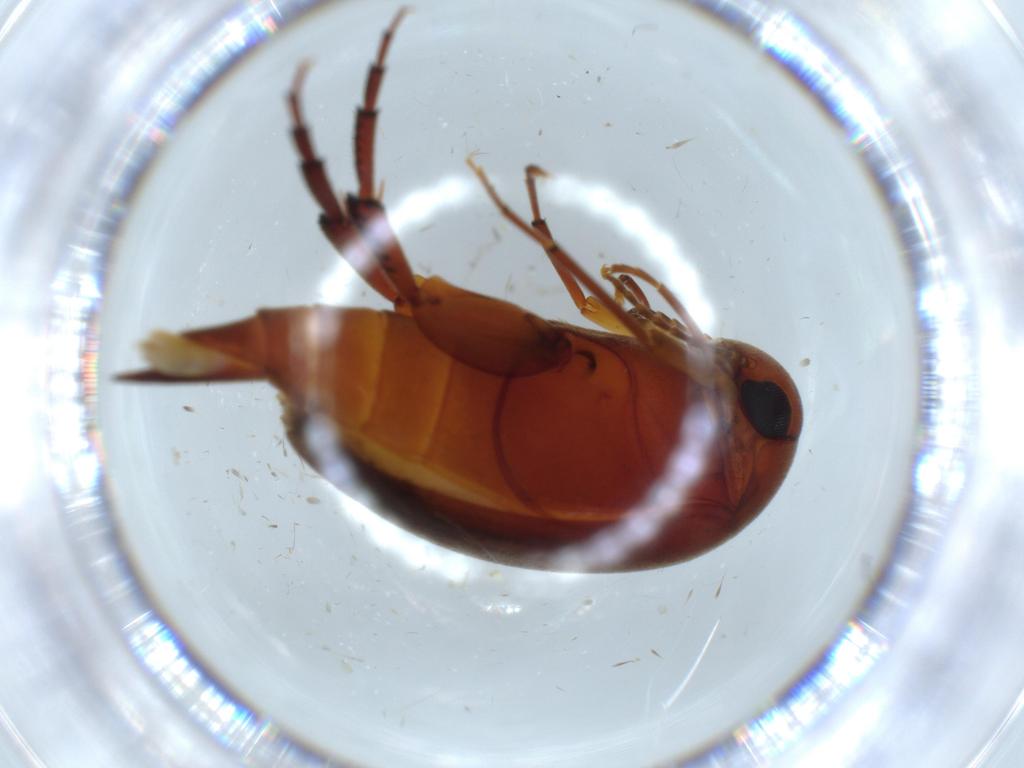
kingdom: Animalia
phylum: Arthropoda
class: Insecta
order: Coleoptera
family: Mordellidae
